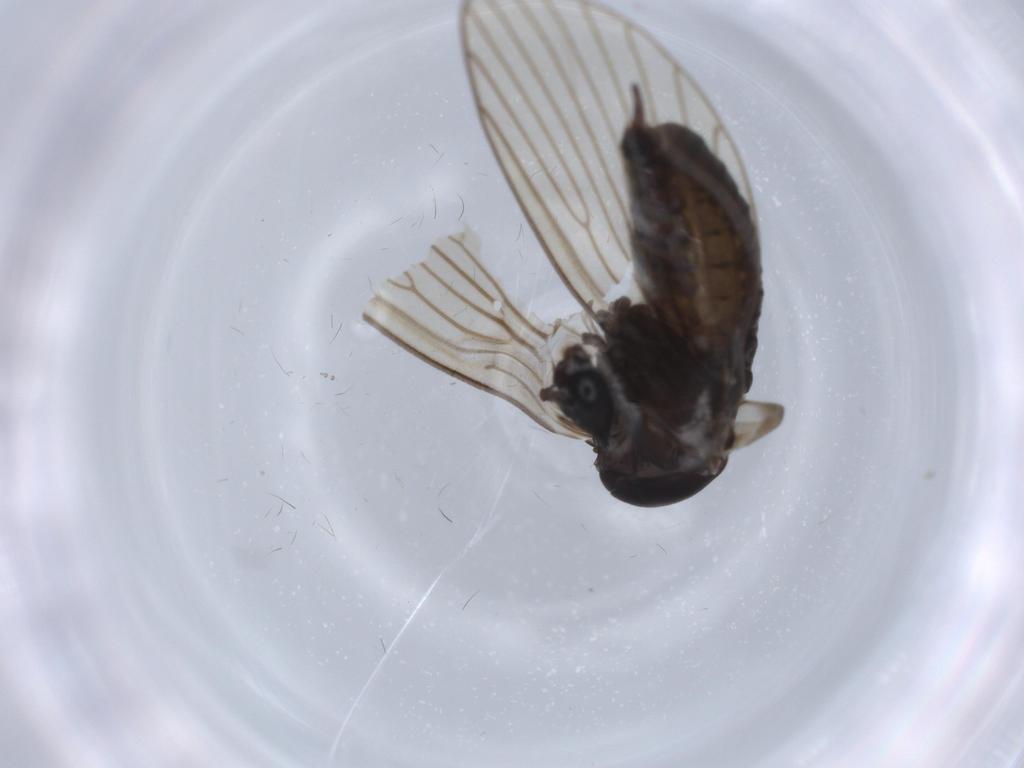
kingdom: Animalia
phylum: Arthropoda
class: Insecta
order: Diptera
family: Psychodidae
